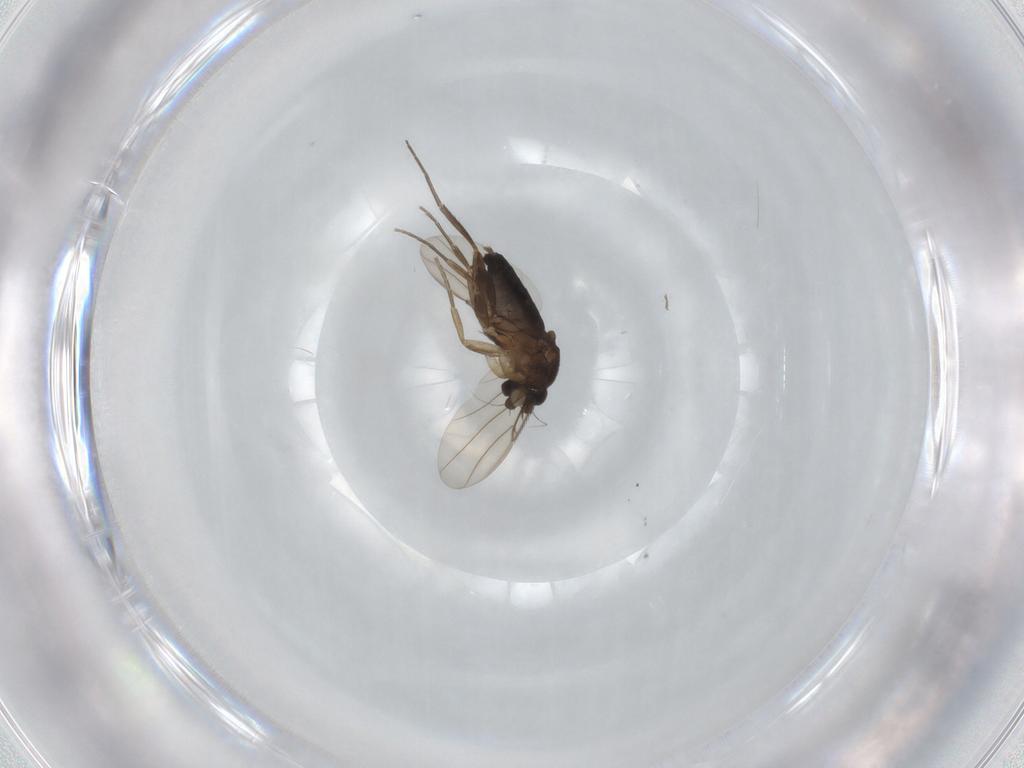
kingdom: Animalia
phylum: Arthropoda
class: Insecta
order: Diptera
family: Phoridae
